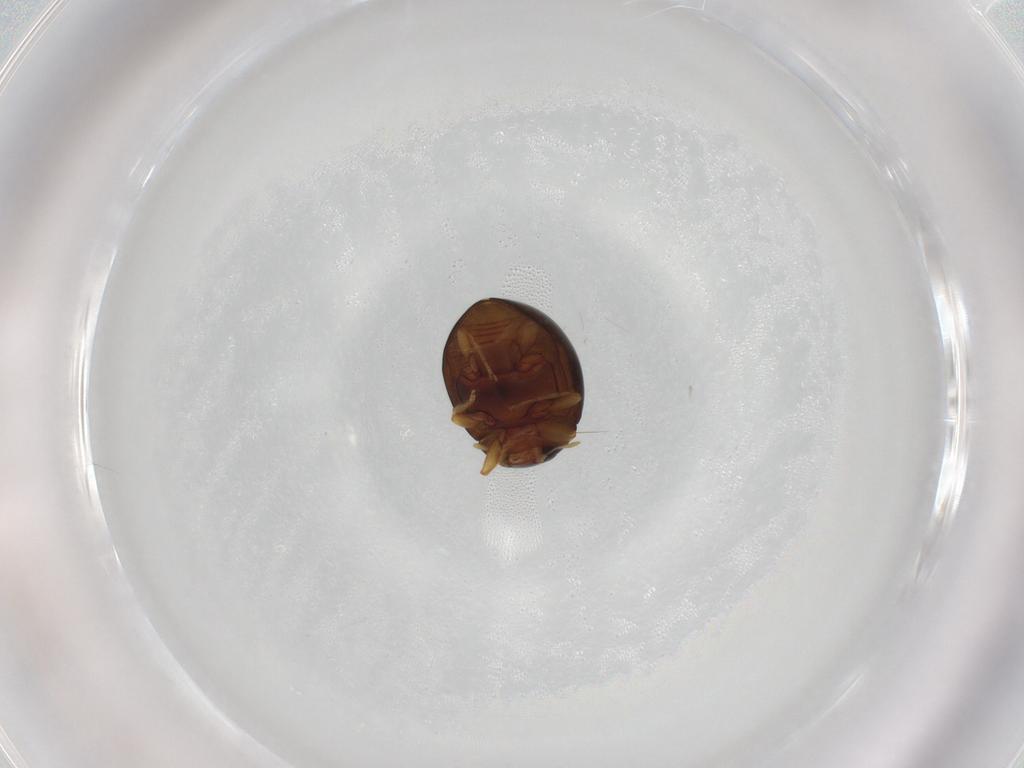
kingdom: Animalia
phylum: Arthropoda
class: Insecta
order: Coleoptera
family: Coccinellidae
